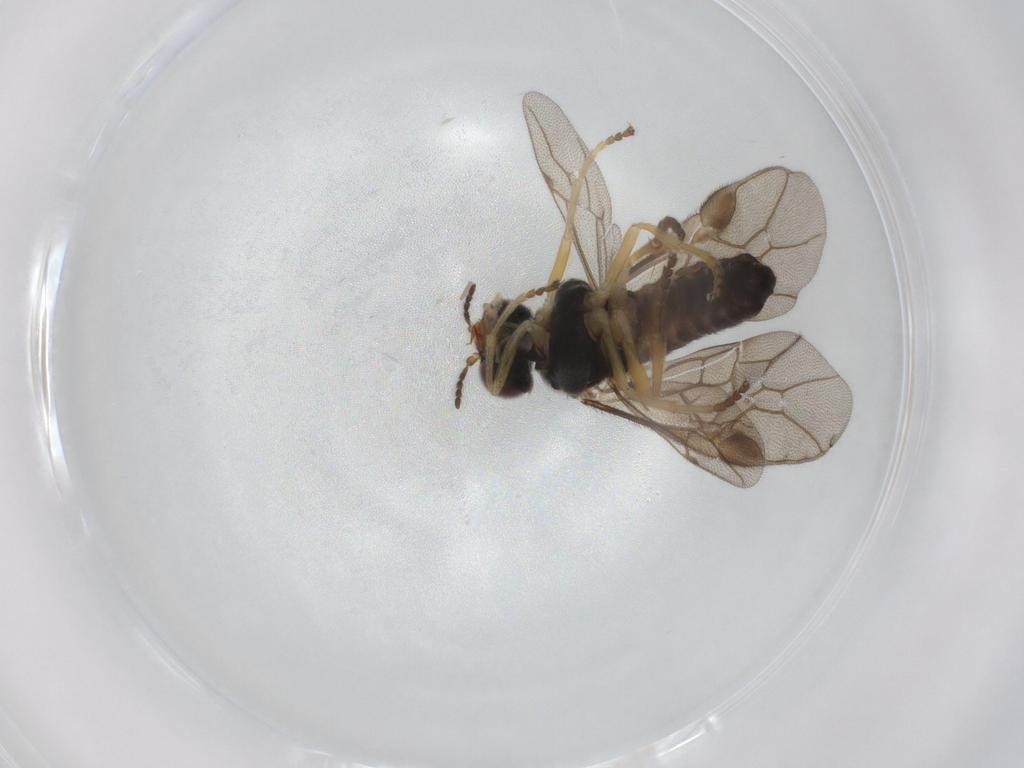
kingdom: Animalia
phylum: Arthropoda
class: Insecta
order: Hymenoptera
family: Pergidae
